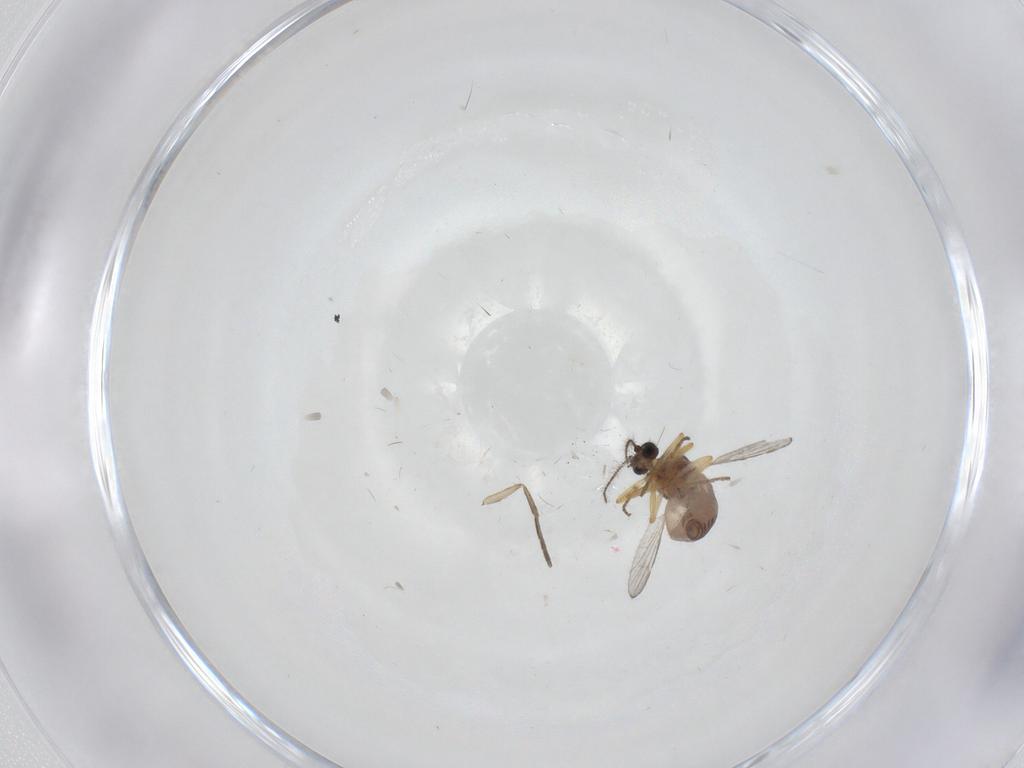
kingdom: Animalia
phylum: Arthropoda
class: Insecta
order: Diptera
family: Ceratopogonidae
